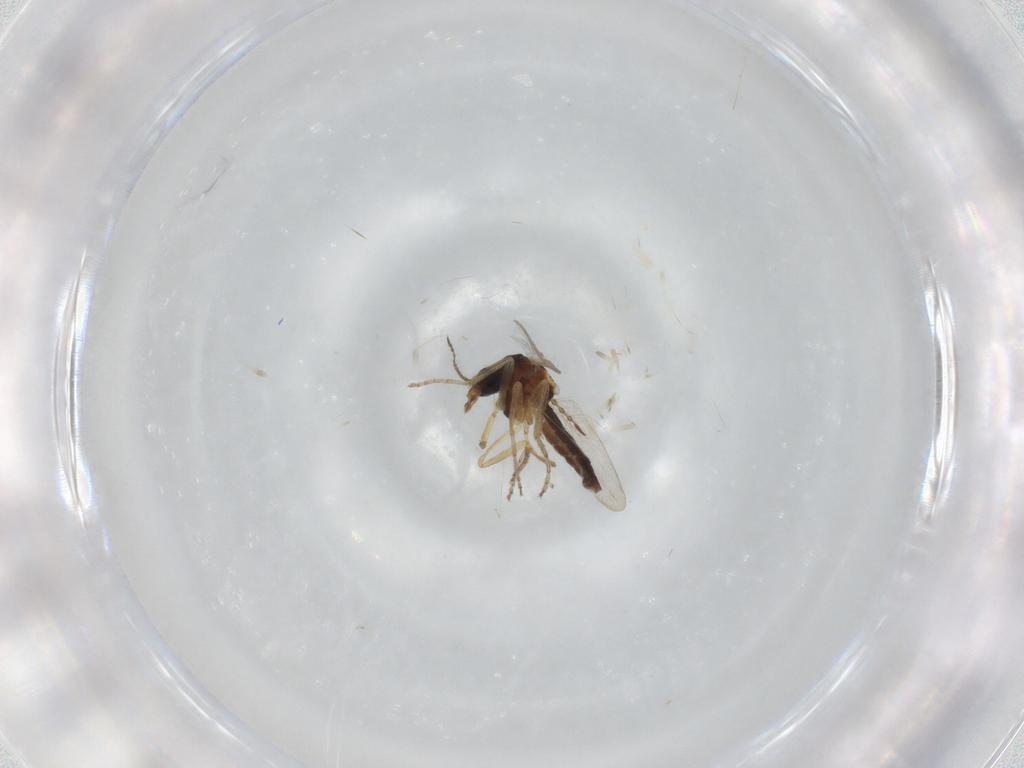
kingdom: Animalia
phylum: Arthropoda
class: Insecta
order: Diptera
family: Ceratopogonidae
